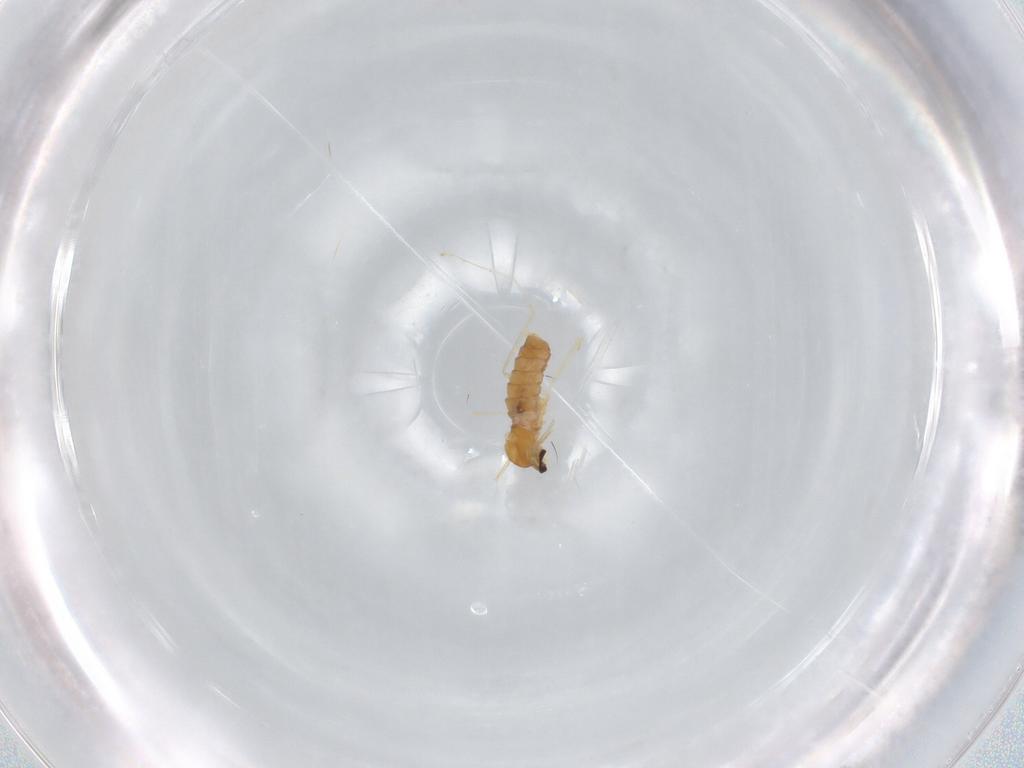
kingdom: Animalia
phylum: Arthropoda
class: Insecta
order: Diptera
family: Cecidomyiidae
